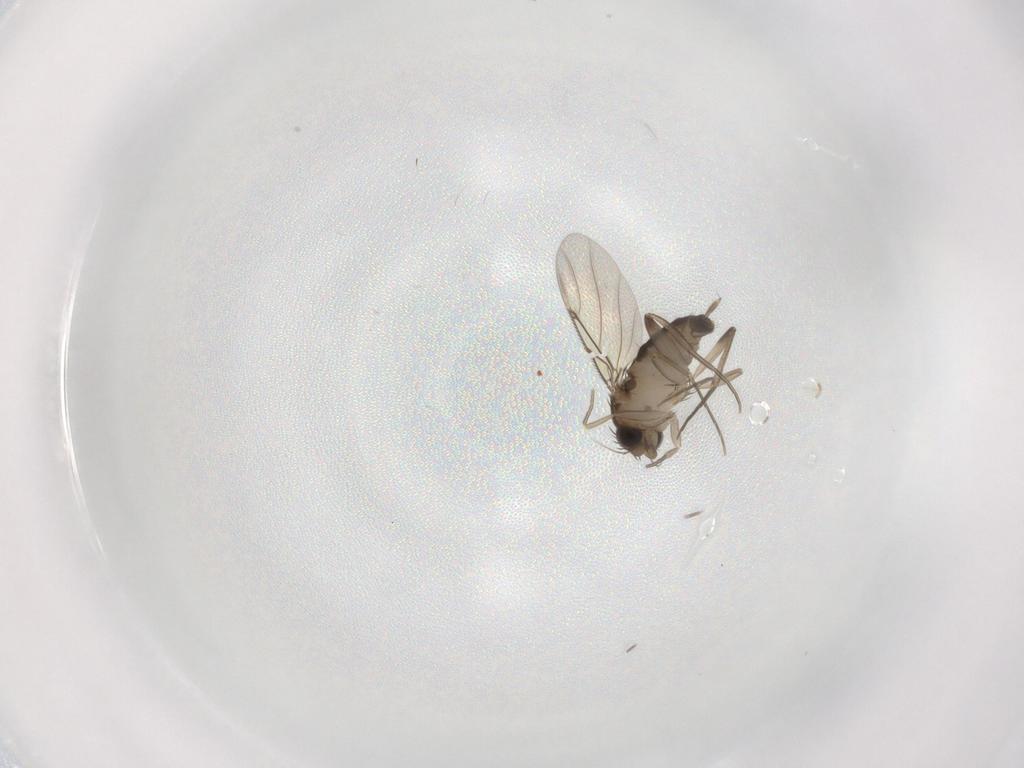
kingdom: Animalia
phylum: Arthropoda
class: Insecta
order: Diptera
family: Phoridae
